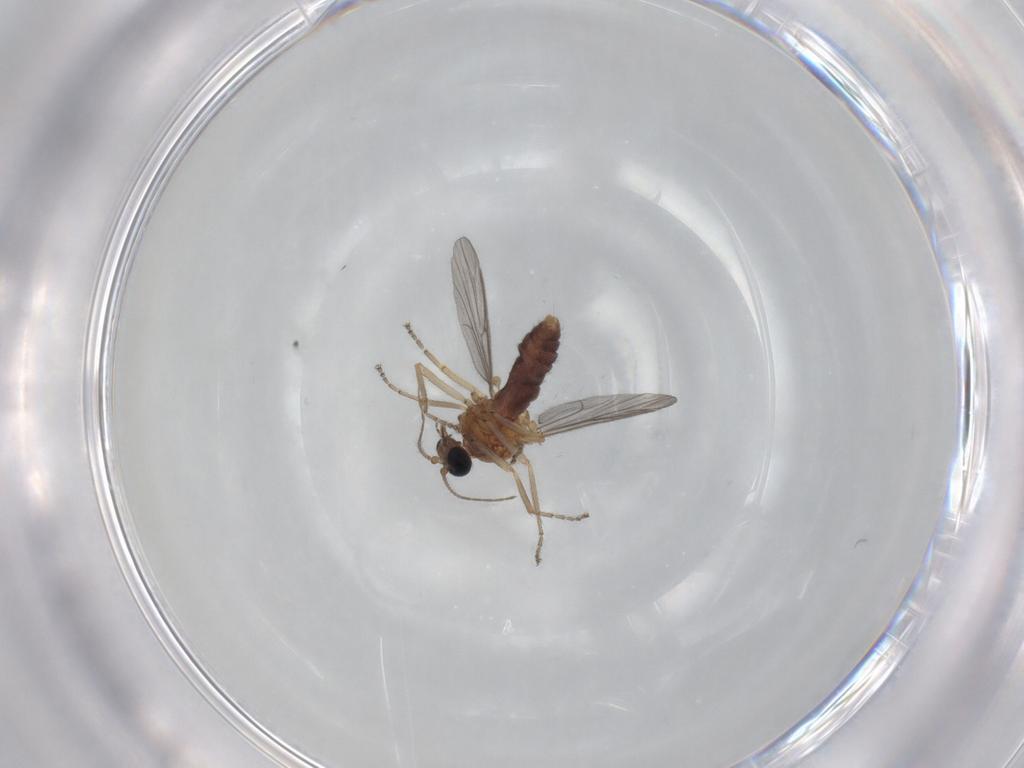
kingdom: Animalia
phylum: Arthropoda
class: Insecta
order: Diptera
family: Ceratopogonidae
